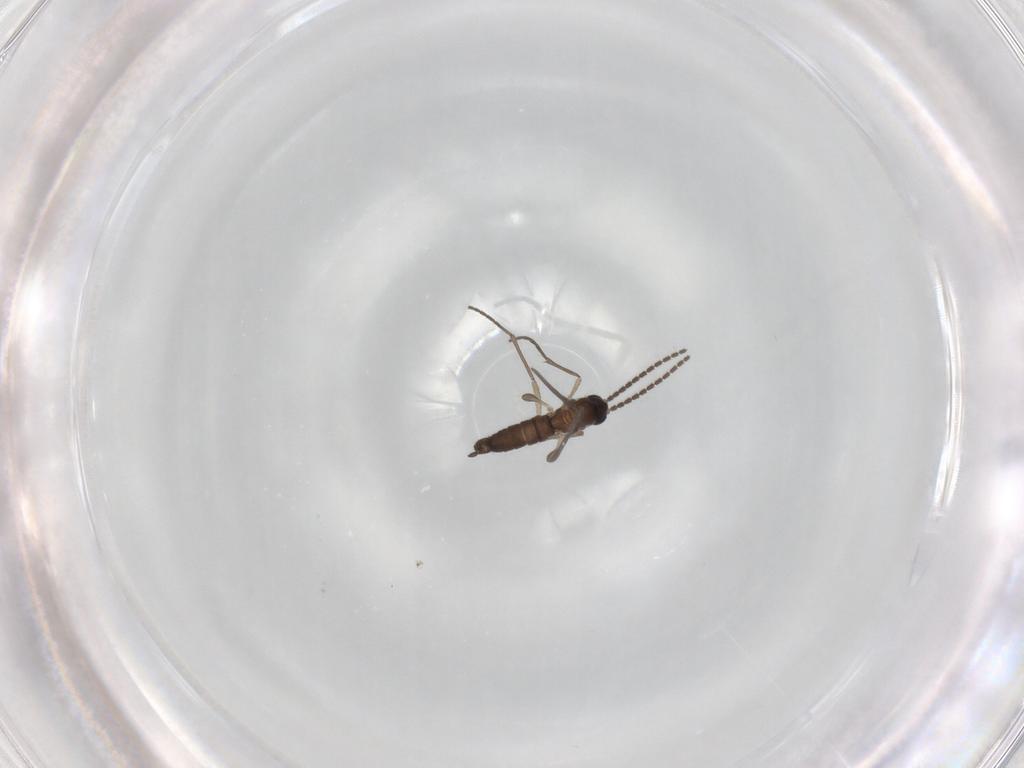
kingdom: Animalia
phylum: Arthropoda
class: Insecta
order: Diptera
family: Sciaridae
